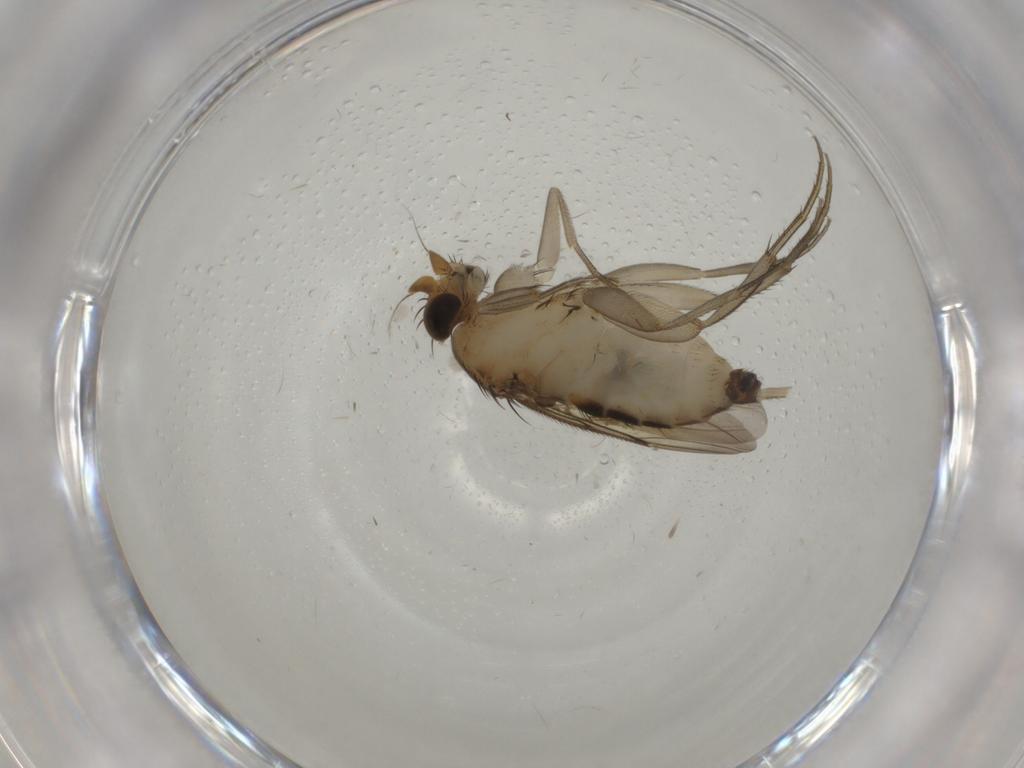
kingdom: Animalia
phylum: Arthropoda
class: Insecta
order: Diptera
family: Phoridae
